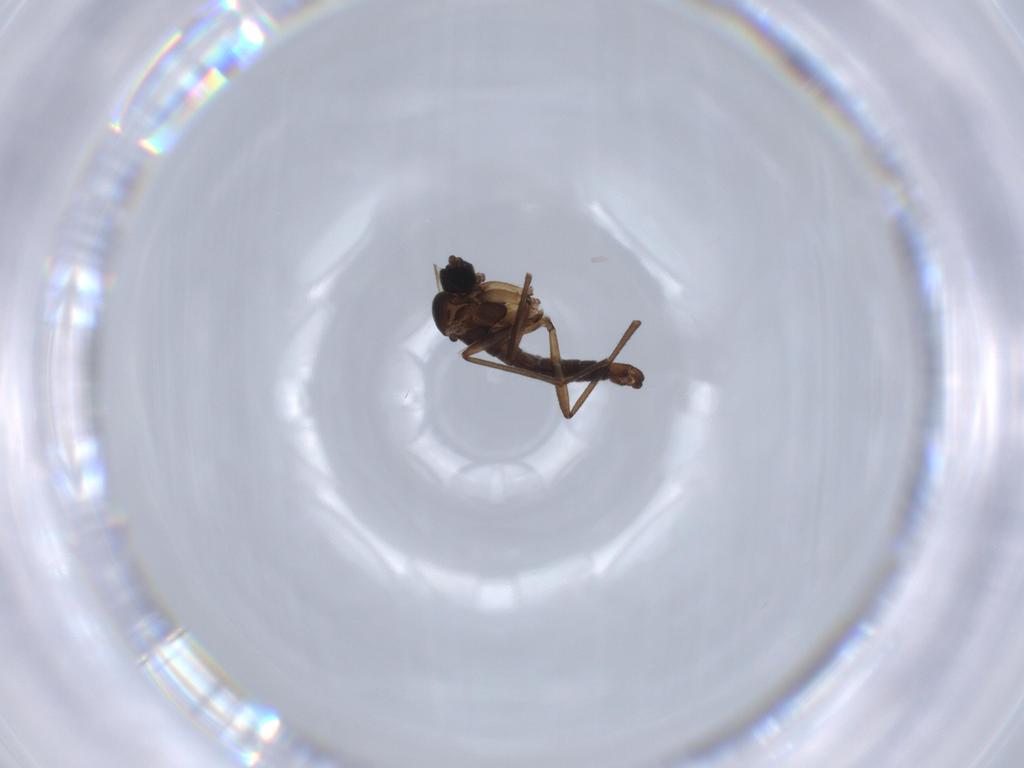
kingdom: Animalia
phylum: Arthropoda
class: Insecta
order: Diptera
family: Sciaridae
